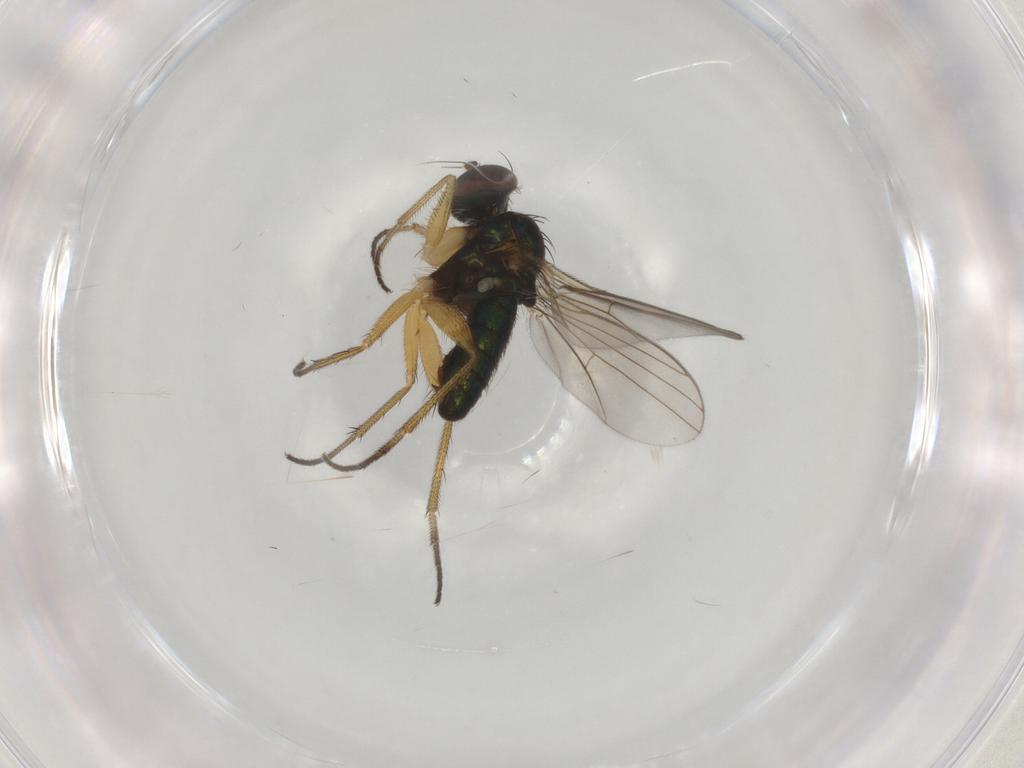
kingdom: Animalia
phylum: Arthropoda
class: Insecta
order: Diptera
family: Dolichopodidae
